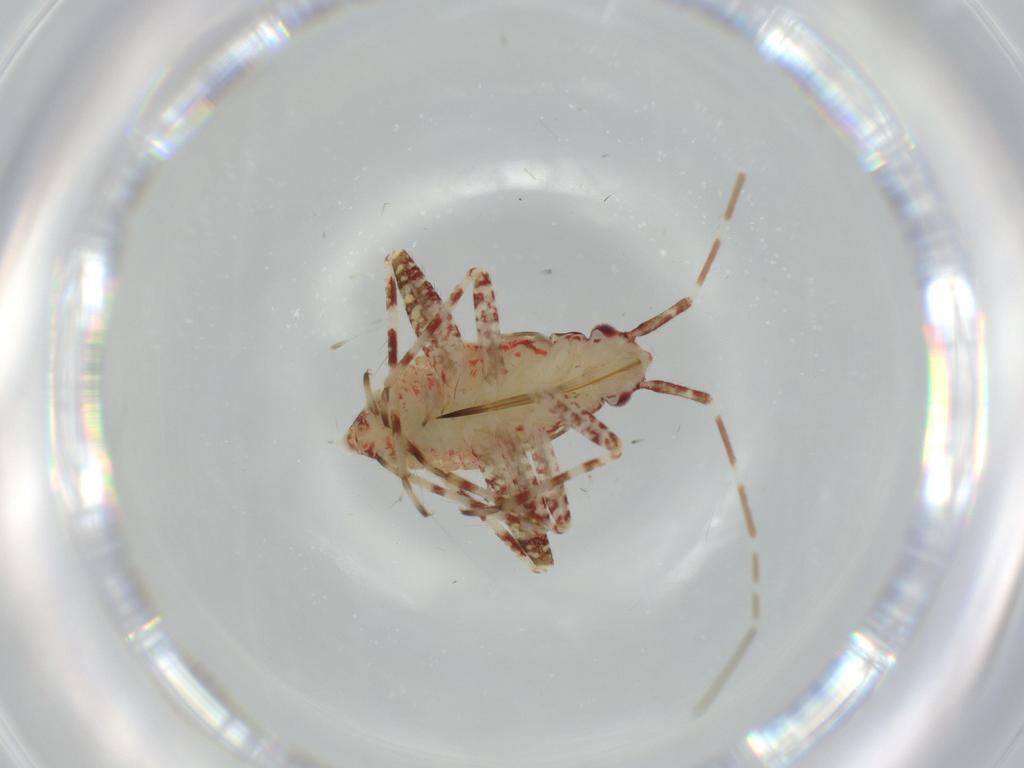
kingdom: Animalia
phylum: Arthropoda
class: Insecta
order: Hemiptera
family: Miridae
